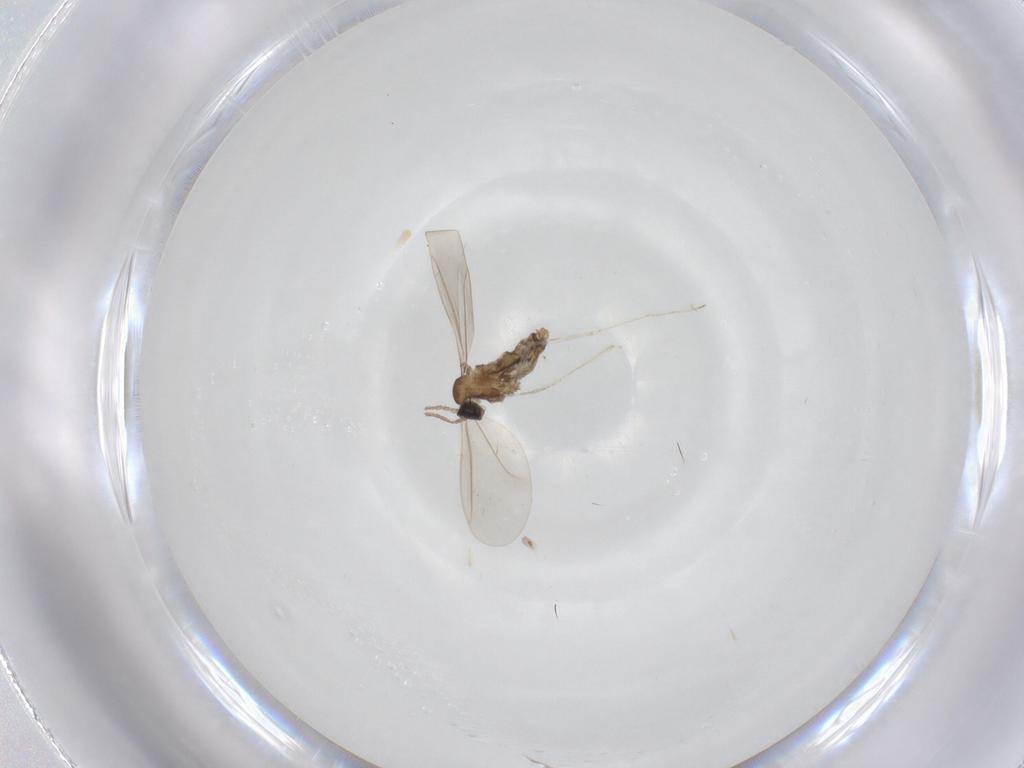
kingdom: Animalia
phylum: Arthropoda
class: Insecta
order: Diptera
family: Cecidomyiidae
